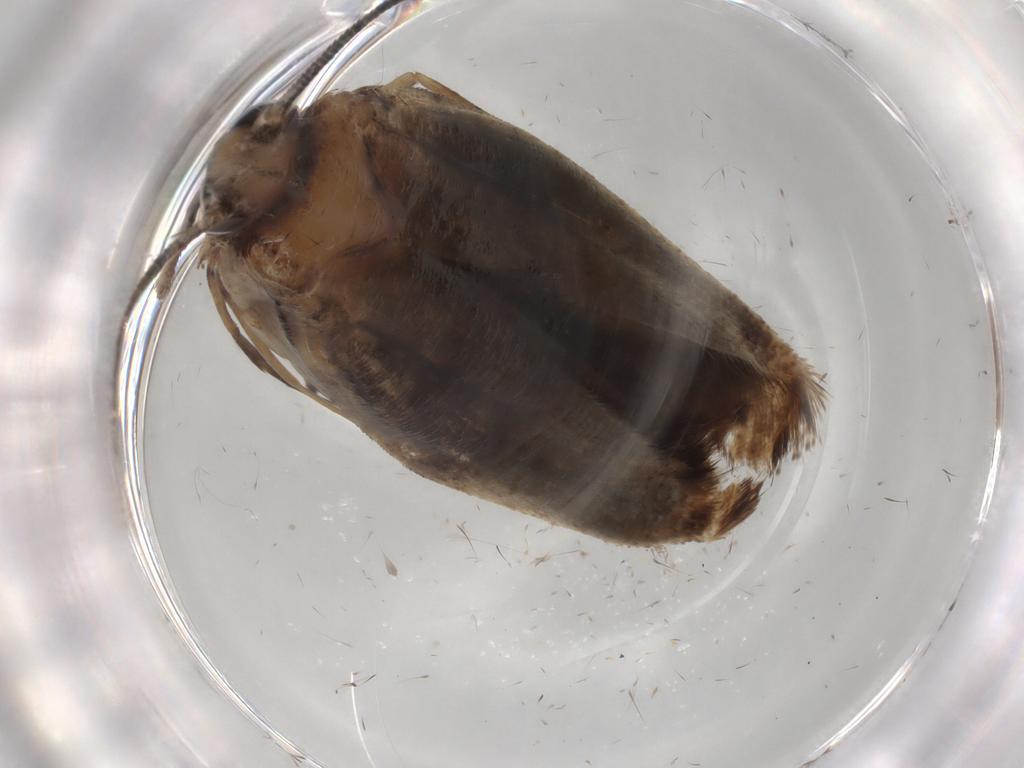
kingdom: Animalia
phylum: Arthropoda
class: Insecta
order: Lepidoptera
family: Yponomeutidae
